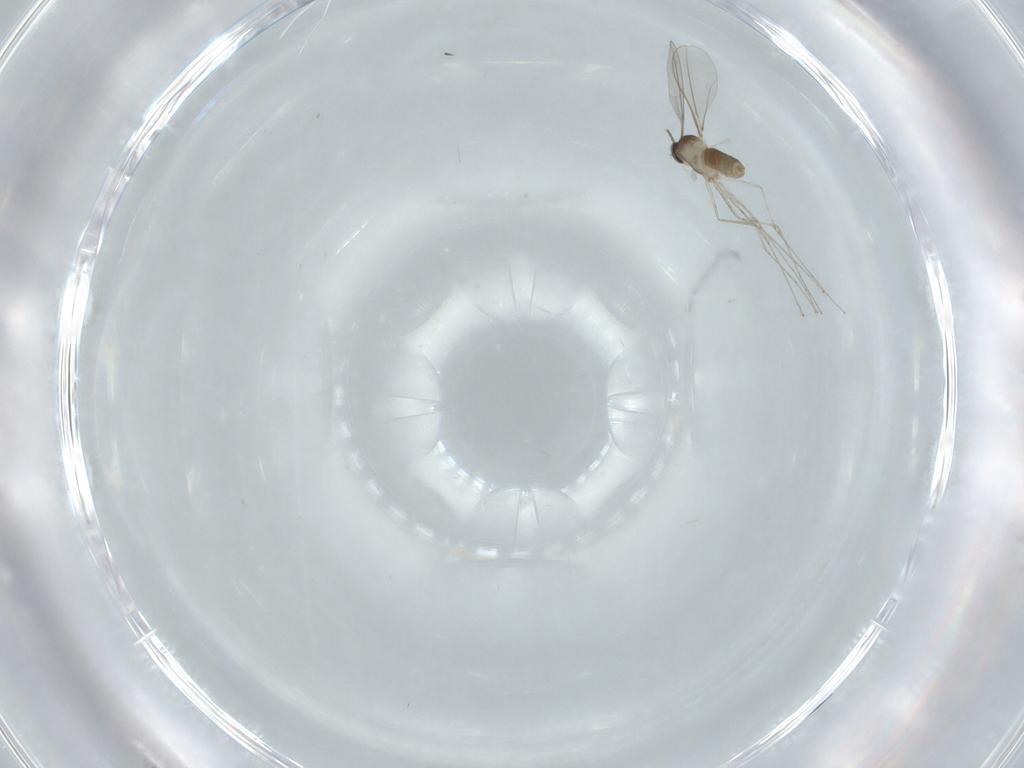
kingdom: Animalia
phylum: Arthropoda
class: Insecta
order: Diptera
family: Cecidomyiidae
